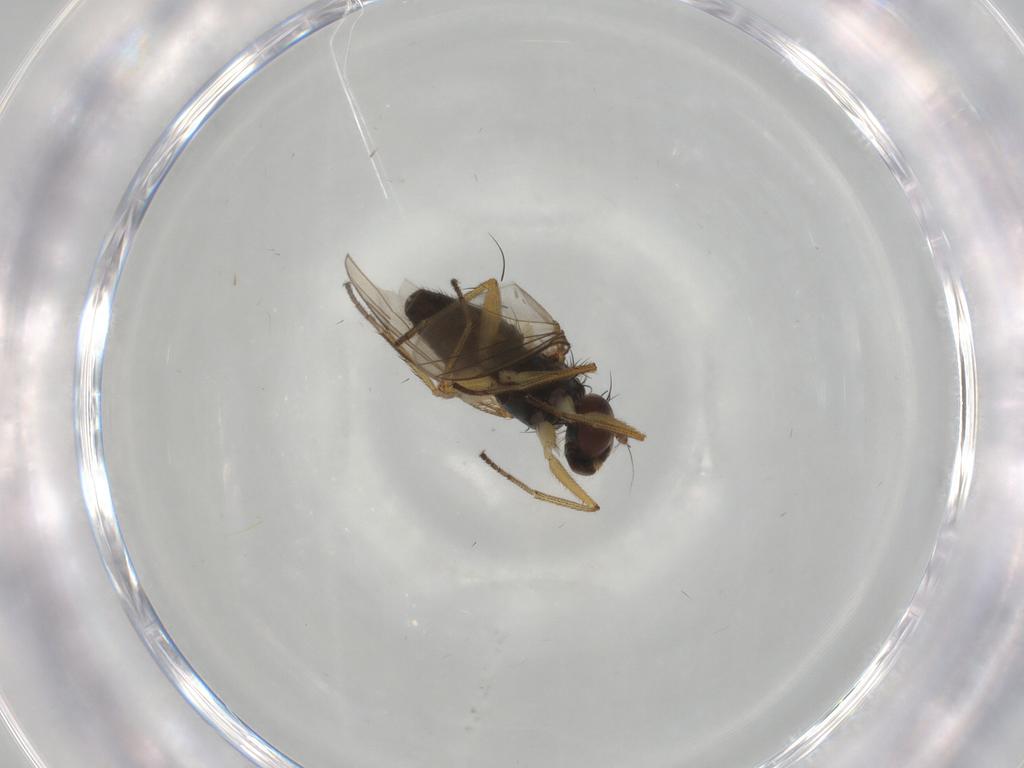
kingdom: Animalia
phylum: Arthropoda
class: Insecta
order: Diptera
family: Dolichopodidae
